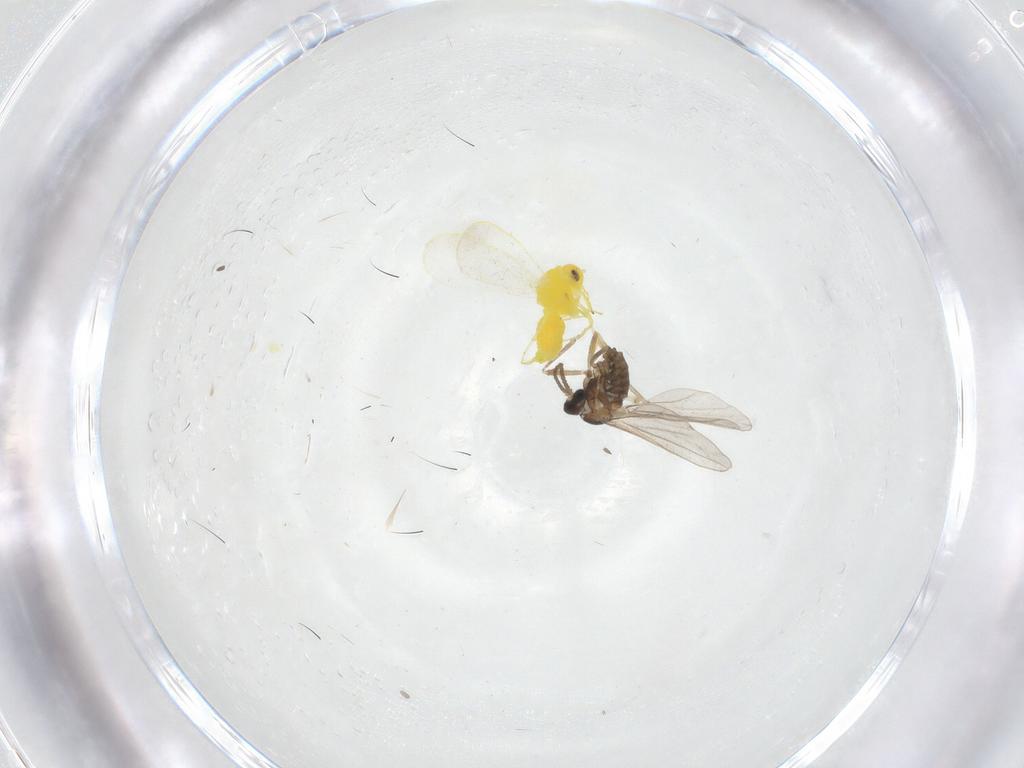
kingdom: Animalia
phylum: Arthropoda
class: Insecta
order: Diptera
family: Cecidomyiidae
